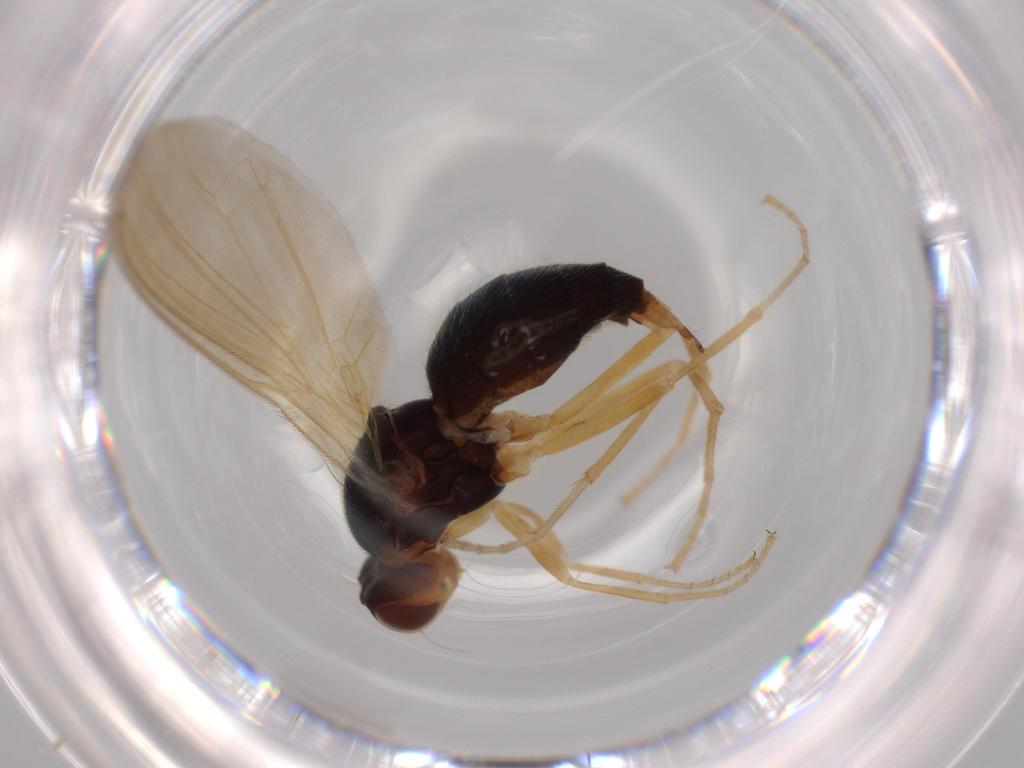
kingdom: Animalia
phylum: Arthropoda
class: Insecta
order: Diptera
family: Psilidae
